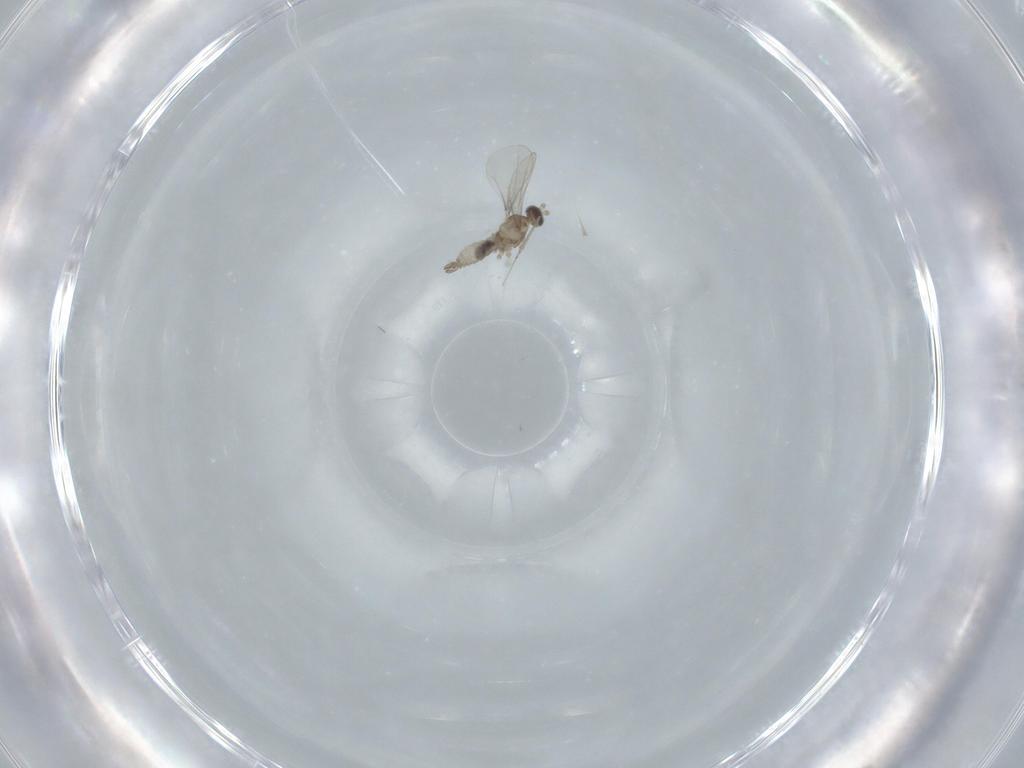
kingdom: Animalia
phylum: Arthropoda
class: Insecta
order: Diptera
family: Cecidomyiidae
